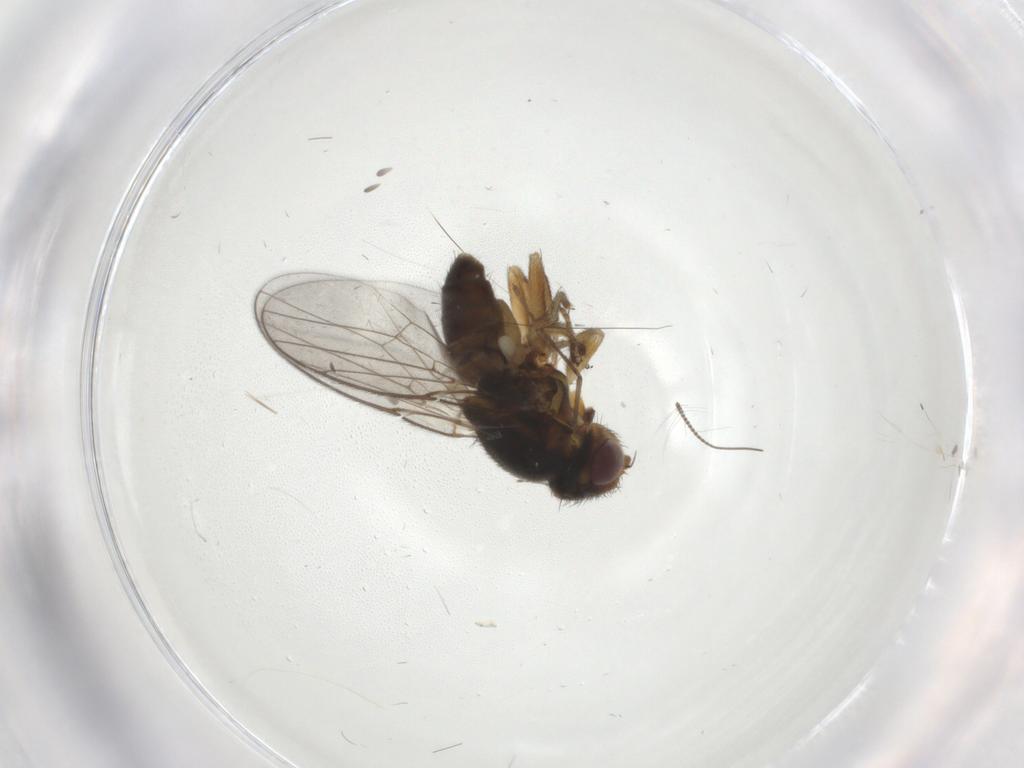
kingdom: Animalia
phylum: Arthropoda
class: Insecta
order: Diptera
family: Chloropidae
